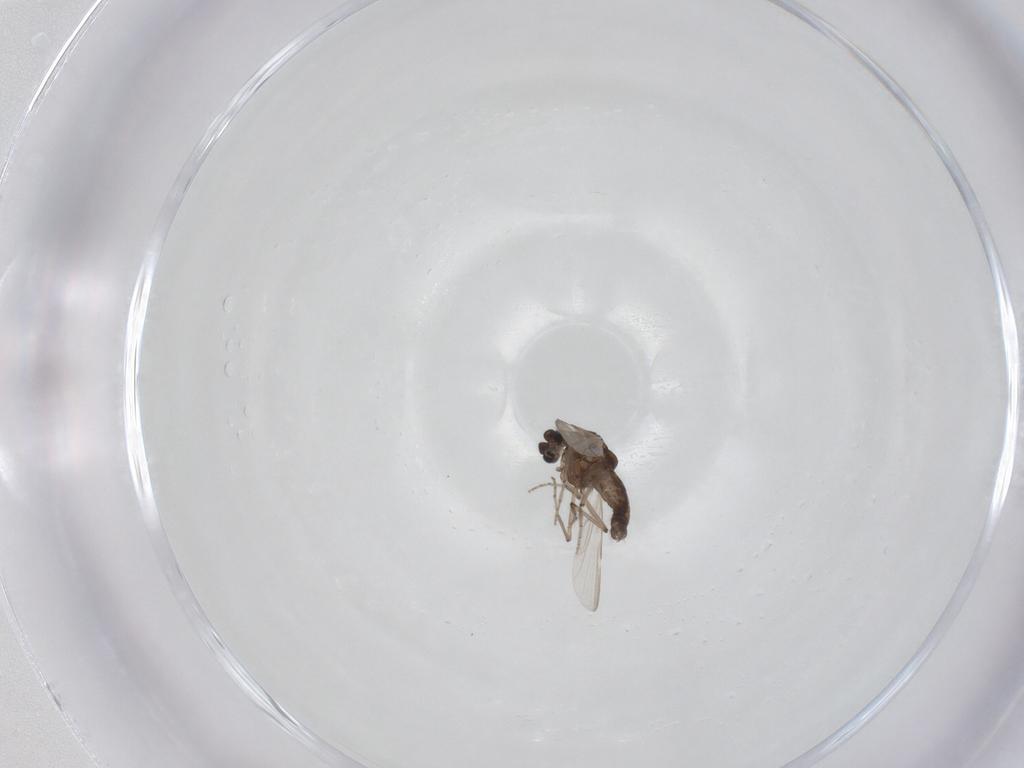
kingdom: Animalia
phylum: Arthropoda
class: Insecta
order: Diptera
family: Ceratopogonidae
